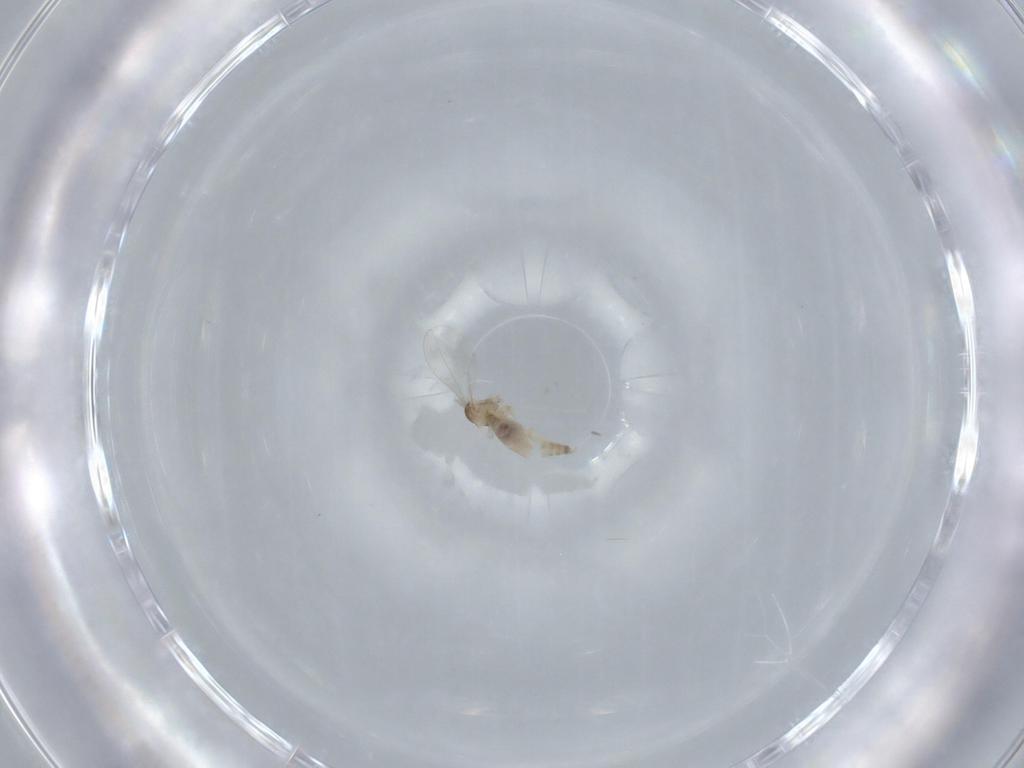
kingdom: Animalia
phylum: Arthropoda
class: Insecta
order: Diptera
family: Cecidomyiidae
